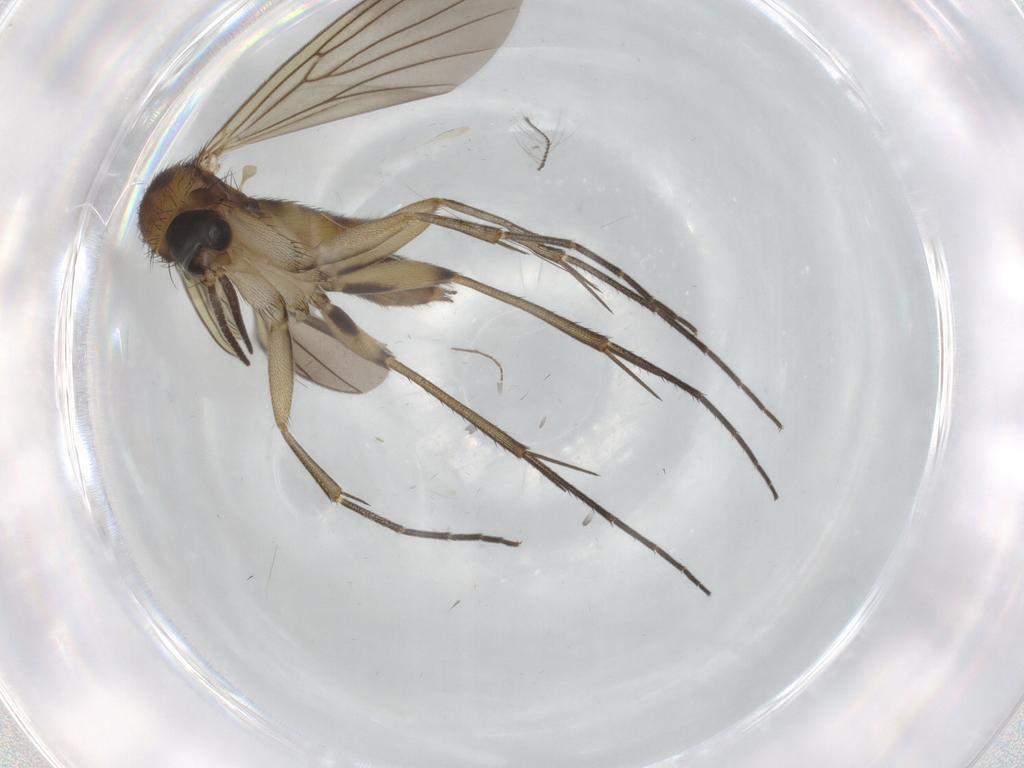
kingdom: Animalia
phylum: Arthropoda
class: Insecta
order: Diptera
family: Mycetophilidae
